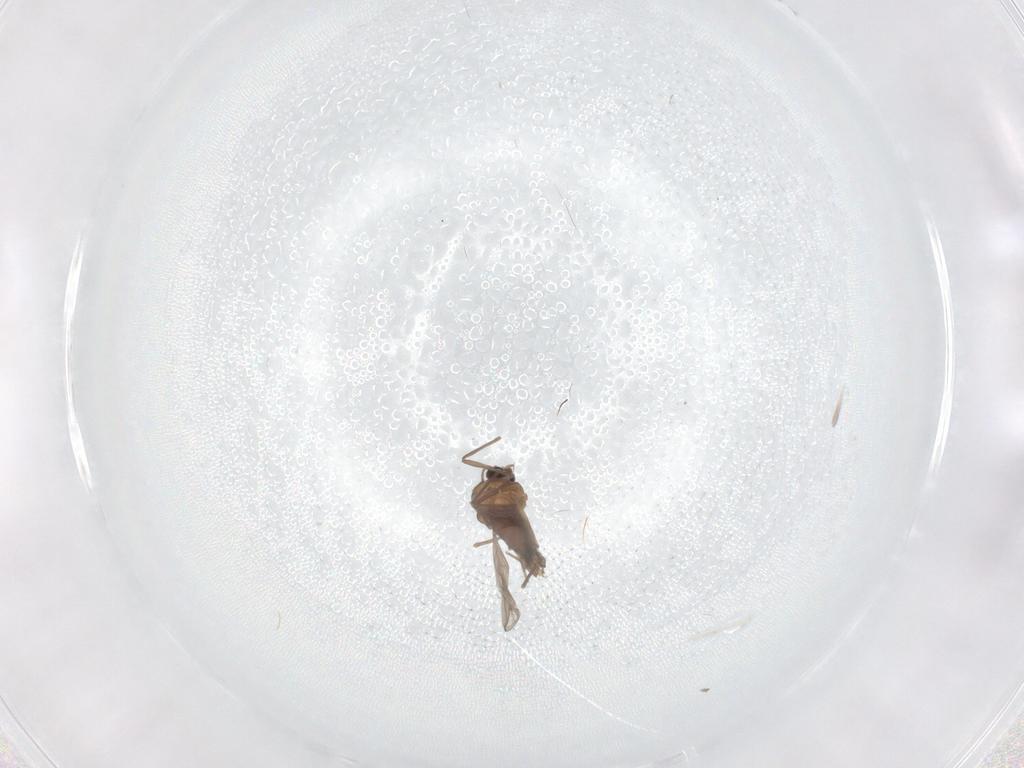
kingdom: Animalia
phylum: Arthropoda
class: Insecta
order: Diptera
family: Chironomidae
